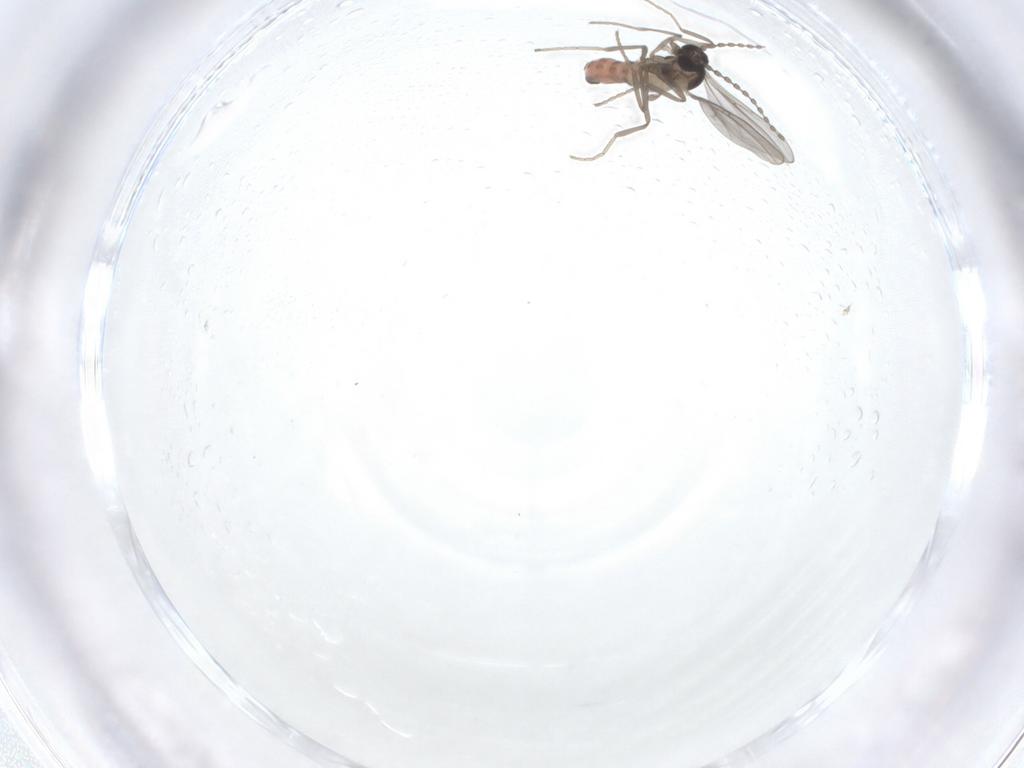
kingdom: Animalia
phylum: Arthropoda
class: Insecta
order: Diptera
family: Cecidomyiidae
